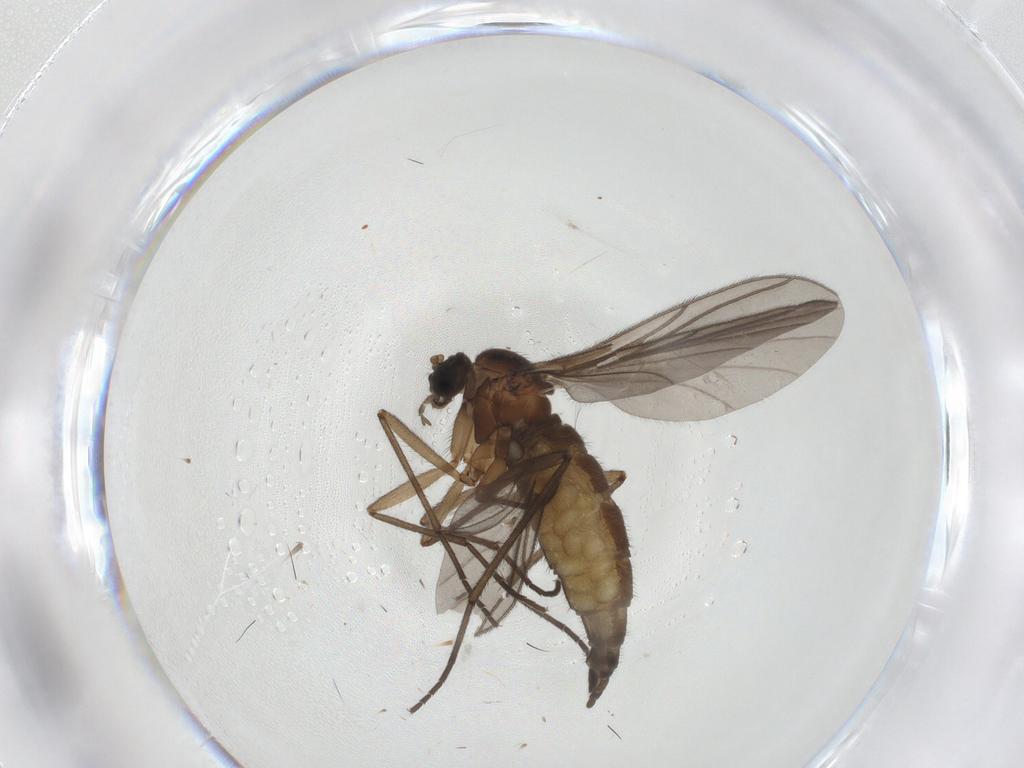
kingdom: Animalia
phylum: Arthropoda
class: Insecta
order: Diptera
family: Sciaridae
